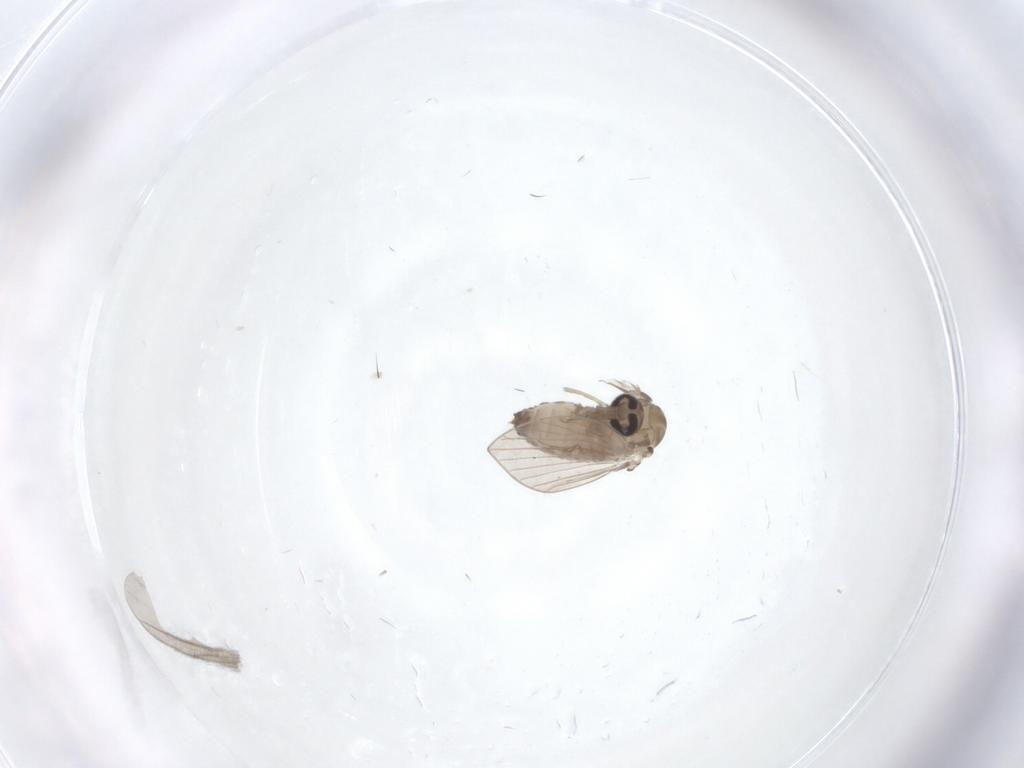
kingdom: Animalia
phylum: Arthropoda
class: Insecta
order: Diptera
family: Psychodidae
